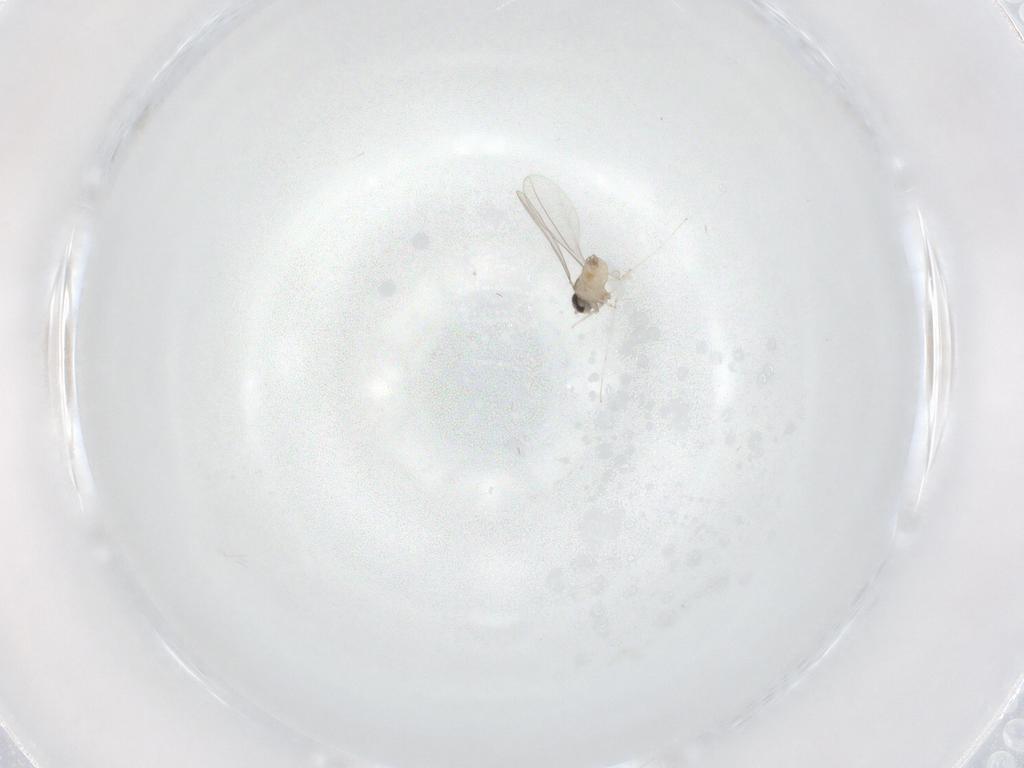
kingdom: Animalia
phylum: Arthropoda
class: Insecta
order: Diptera
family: Cecidomyiidae
